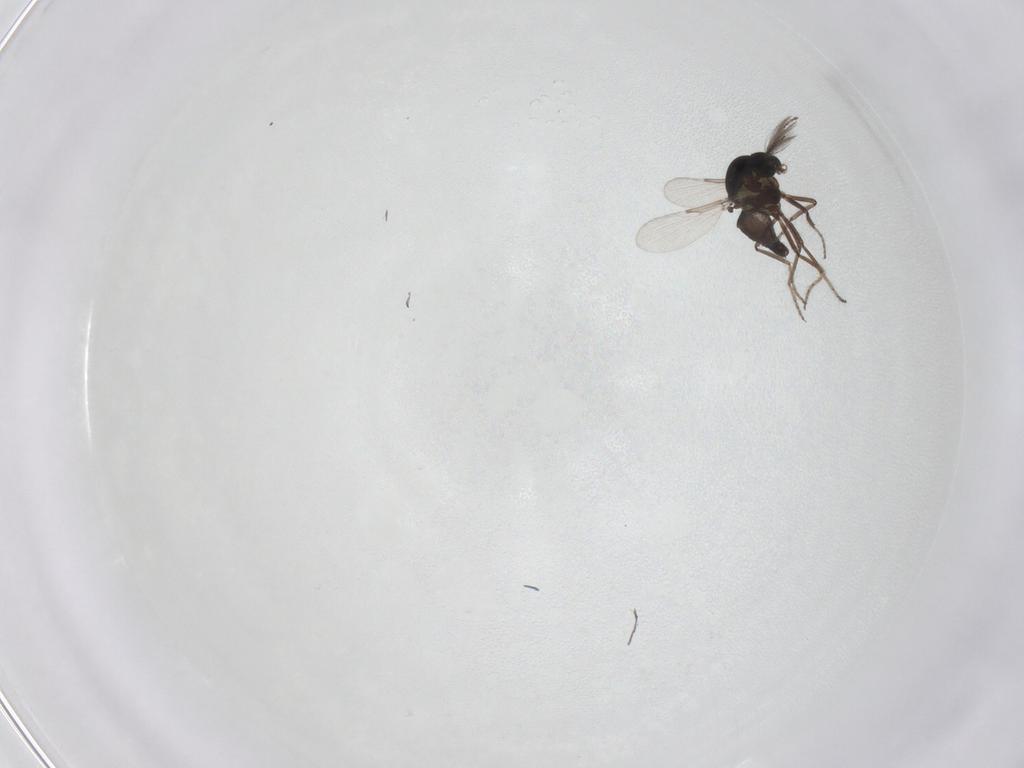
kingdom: Animalia
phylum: Arthropoda
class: Insecta
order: Diptera
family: Ceratopogonidae
